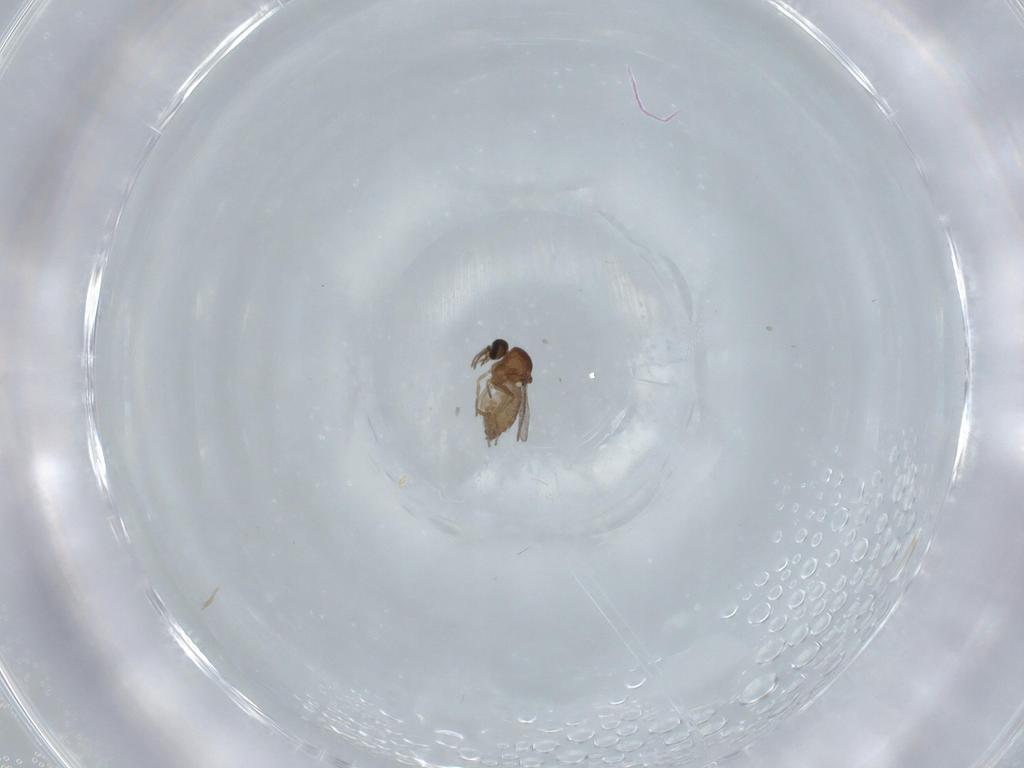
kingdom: Animalia
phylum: Arthropoda
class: Insecta
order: Diptera
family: Ceratopogonidae
